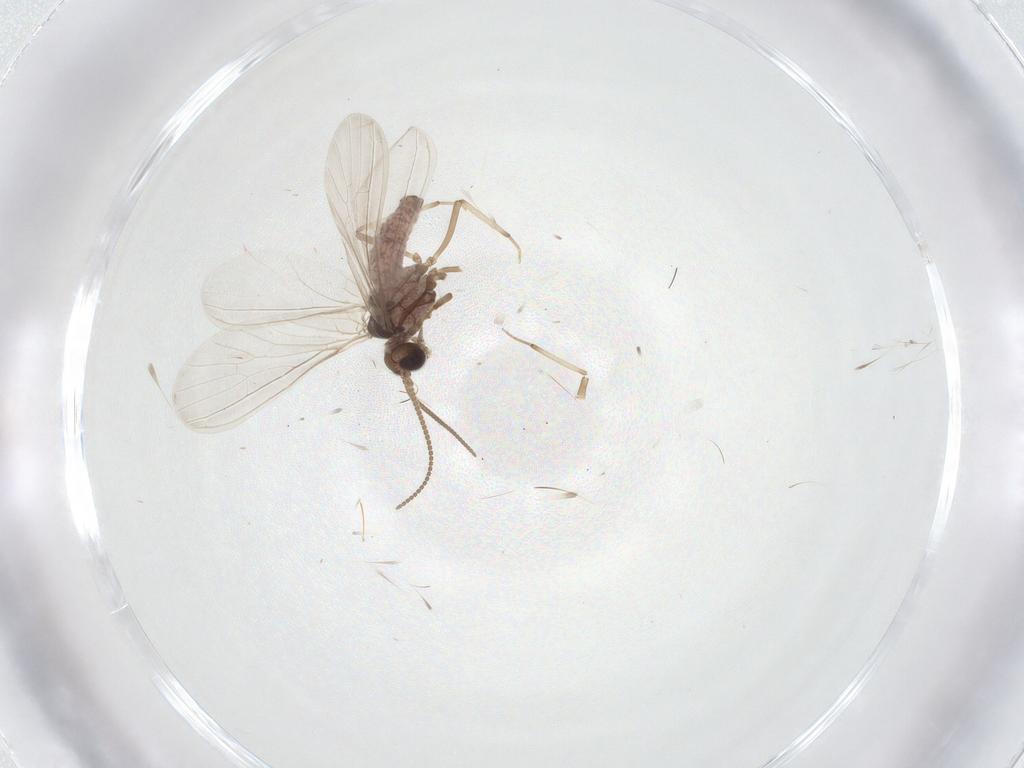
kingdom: Animalia
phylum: Arthropoda
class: Insecta
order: Neuroptera
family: Coniopterygidae
